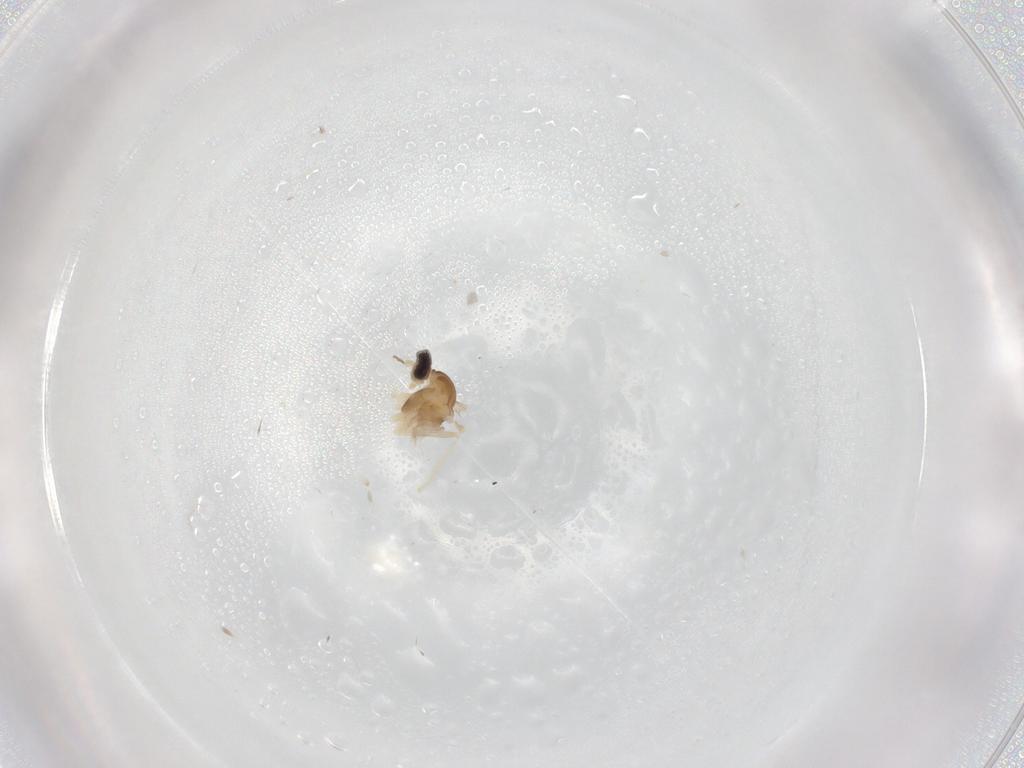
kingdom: Animalia
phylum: Arthropoda
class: Insecta
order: Diptera
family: Cecidomyiidae
